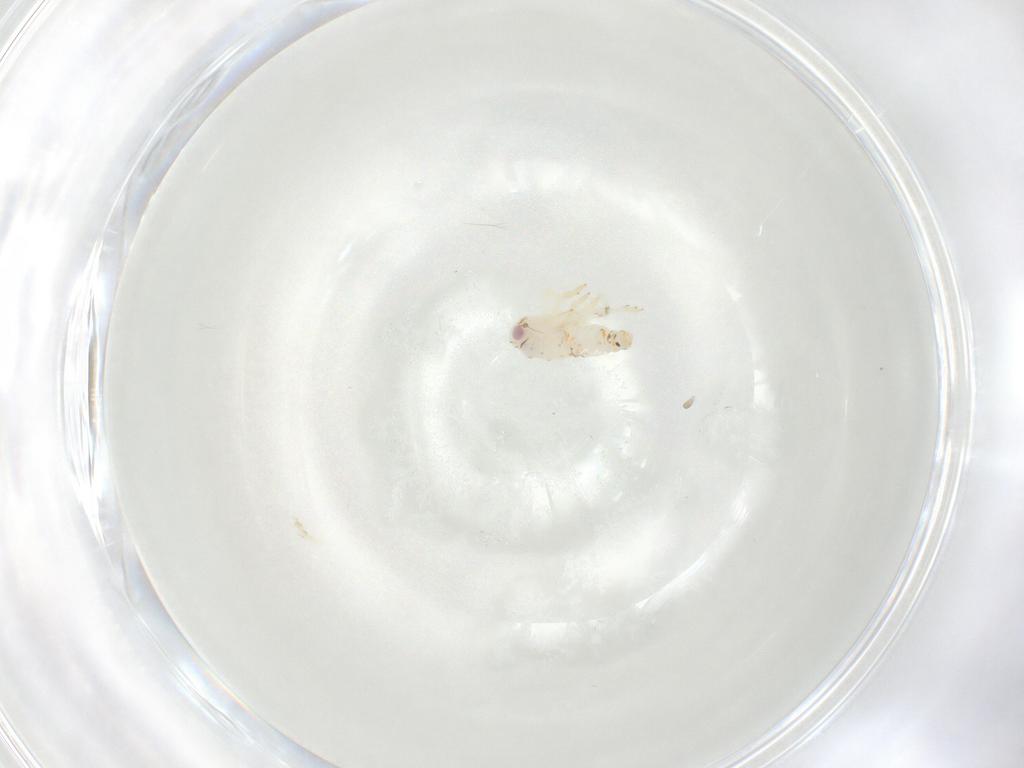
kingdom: Animalia
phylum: Arthropoda
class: Insecta
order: Hemiptera
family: Nogodinidae
